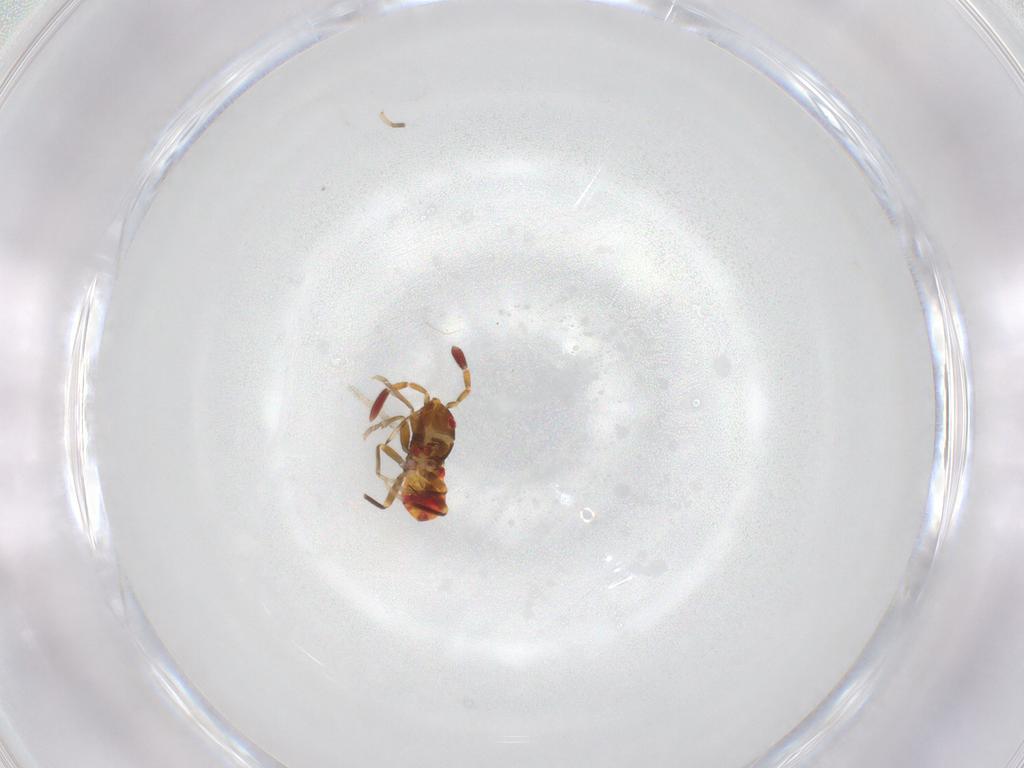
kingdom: Animalia
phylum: Arthropoda
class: Insecta
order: Hemiptera
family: Rhyparochromidae
